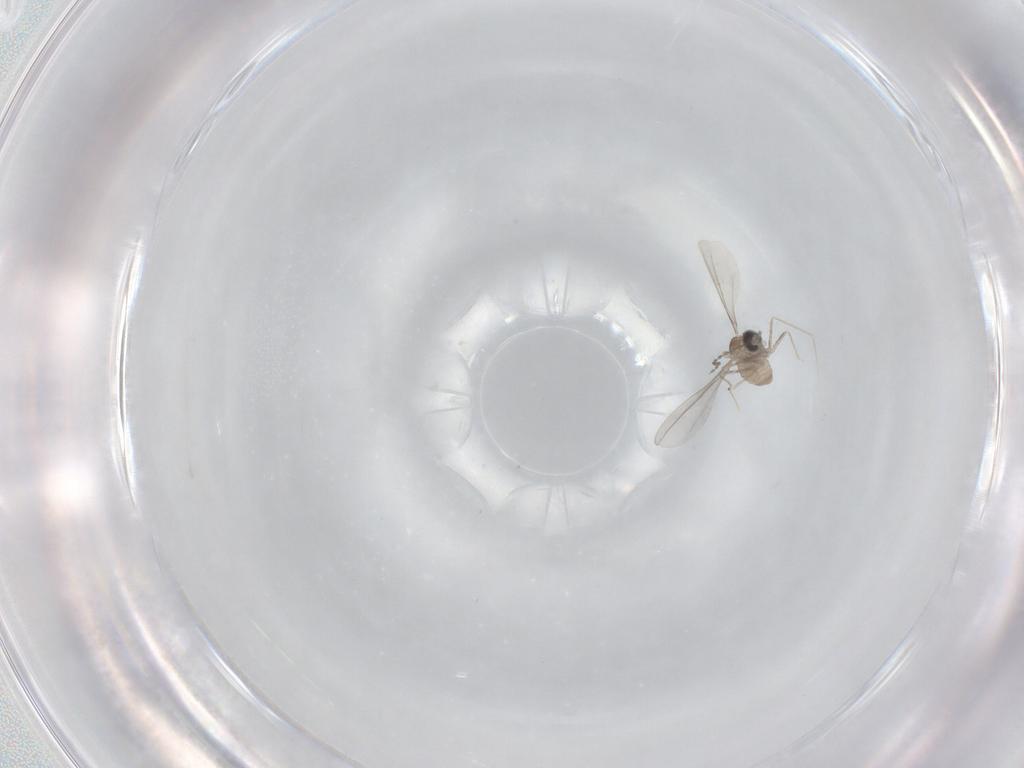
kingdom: Animalia
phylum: Arthropoda
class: Insecta
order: Diptera
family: Cecidomyiidae
